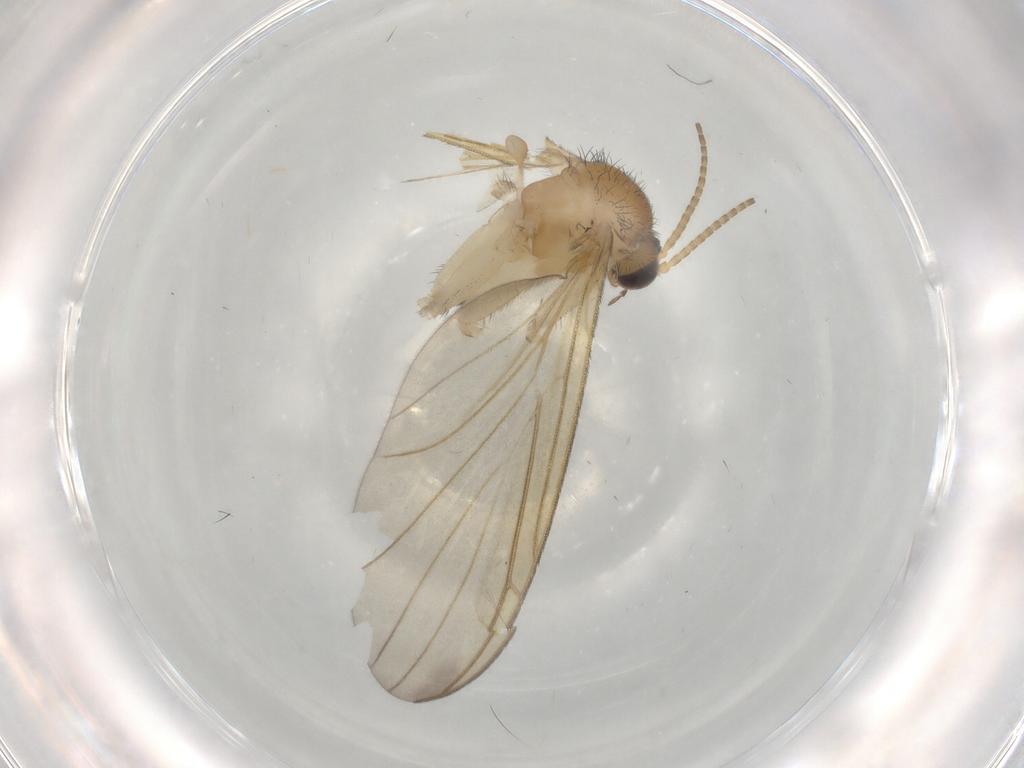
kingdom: Animalia
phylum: Arthropoda
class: Insecta
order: Diptera
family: Keroplatidae
